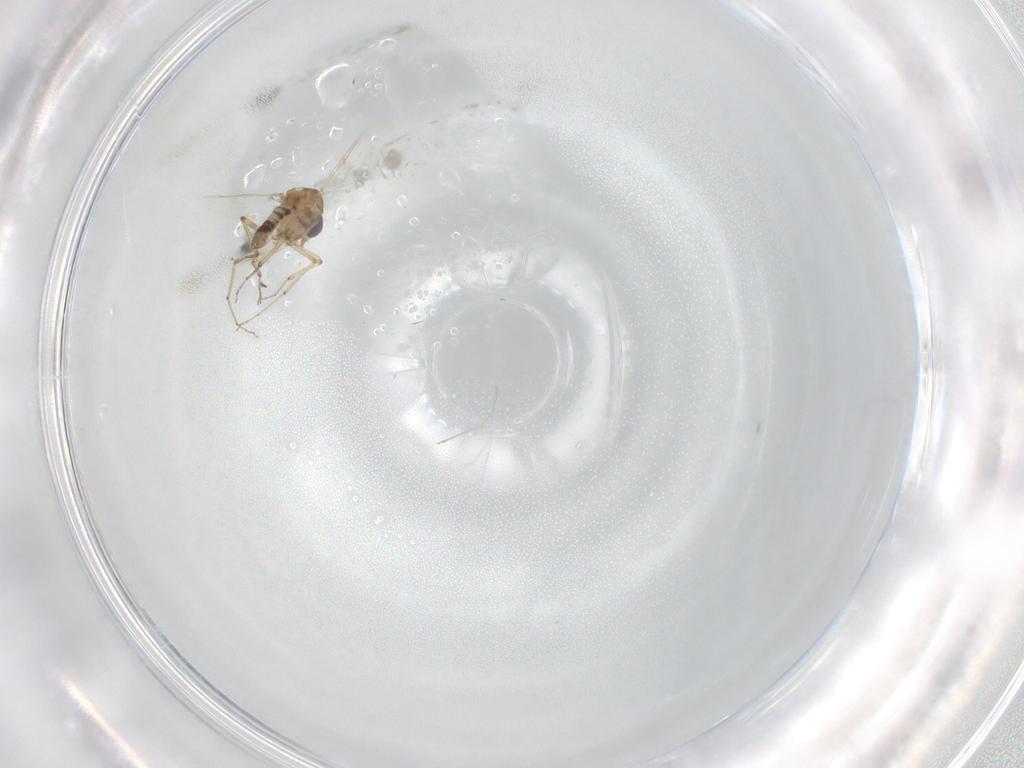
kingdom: Animalia
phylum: Arthropoda
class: Insecta
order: Diptera
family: Ceratopogonidae
